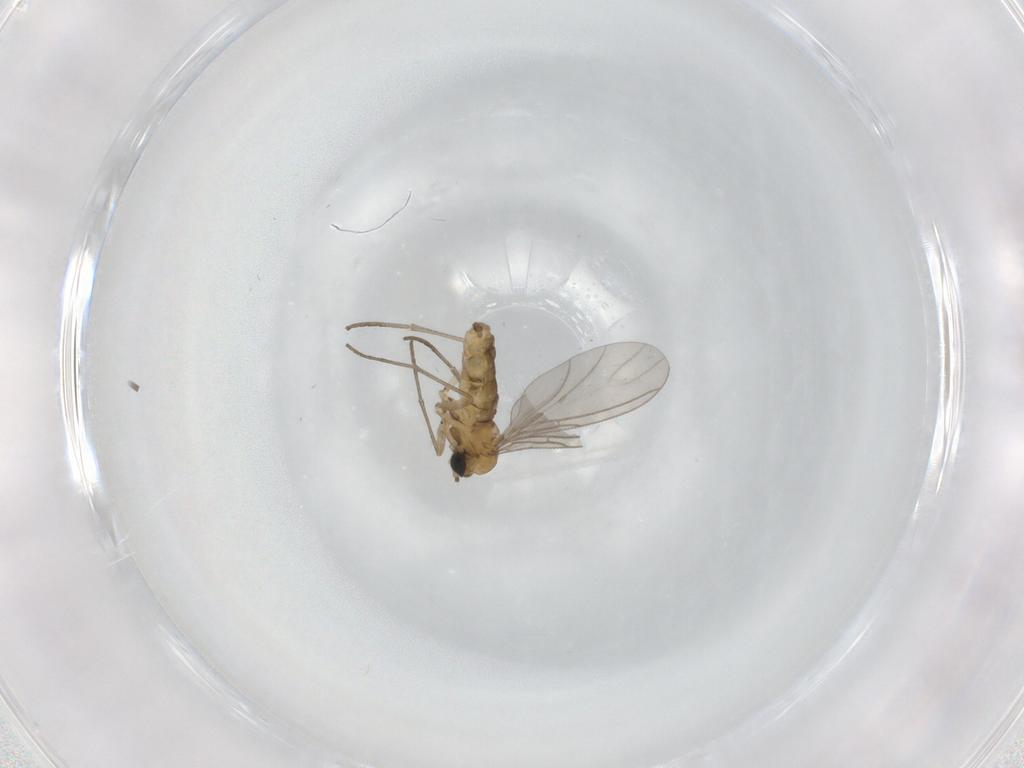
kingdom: Animalia
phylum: Arthropoda
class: Insecta
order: Diptera
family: Sciaridae
